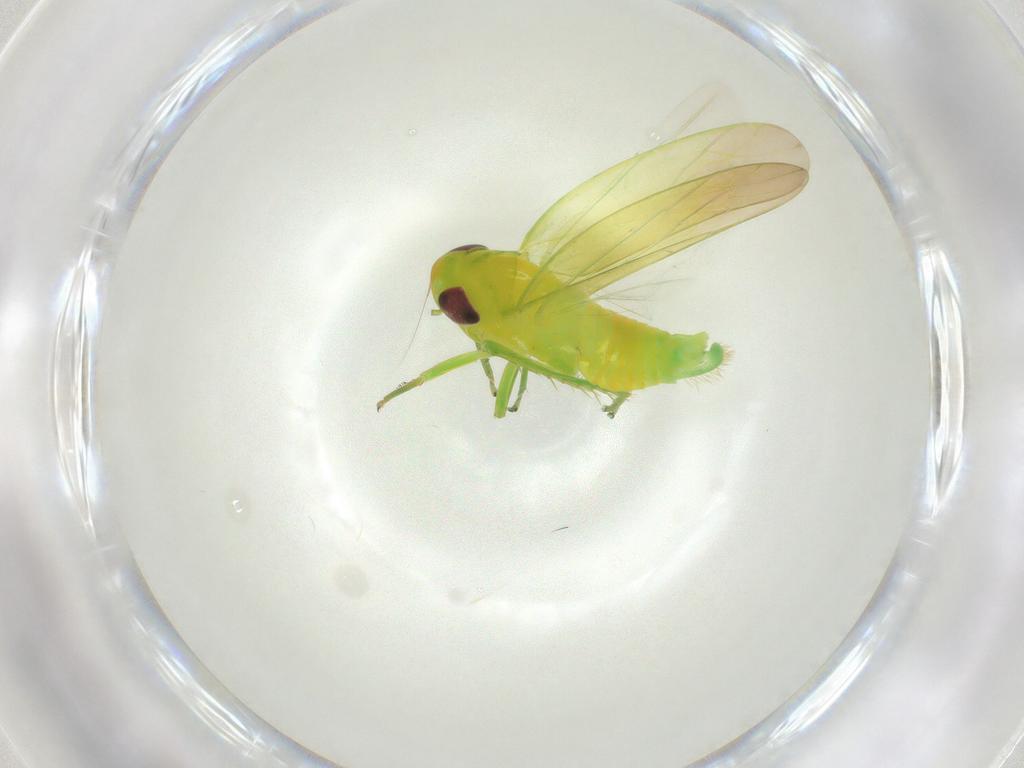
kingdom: Animalia
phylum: Arthropoda
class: Insecta
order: Hemiptera
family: Cicadellidae
